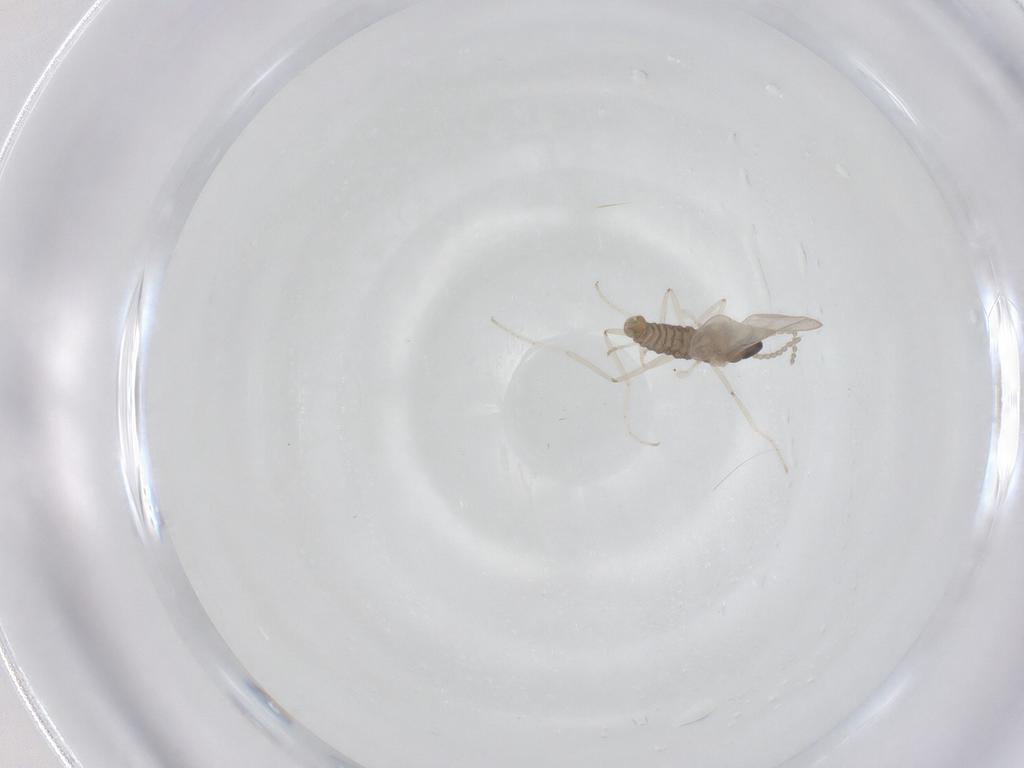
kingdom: Animalia
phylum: Arthropoda
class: Insecta
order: Diptera
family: Cecidomyiidae
